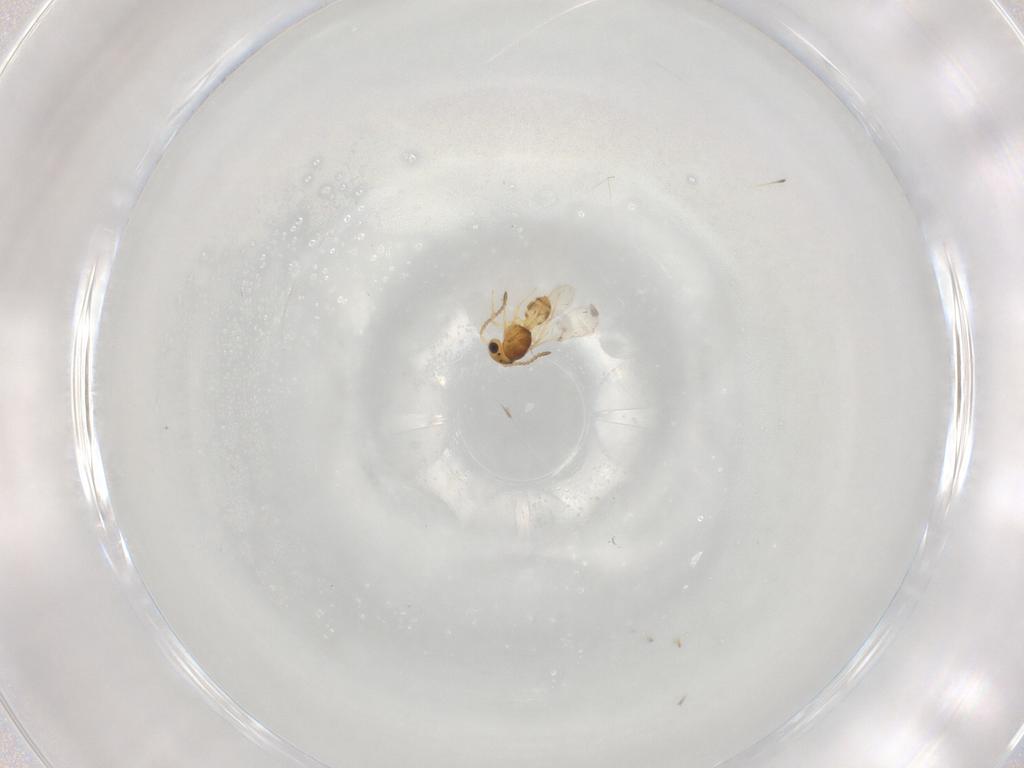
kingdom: Animalia
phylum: Arthropoda
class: Insecta
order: Hymenoptera
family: Scelionidae
